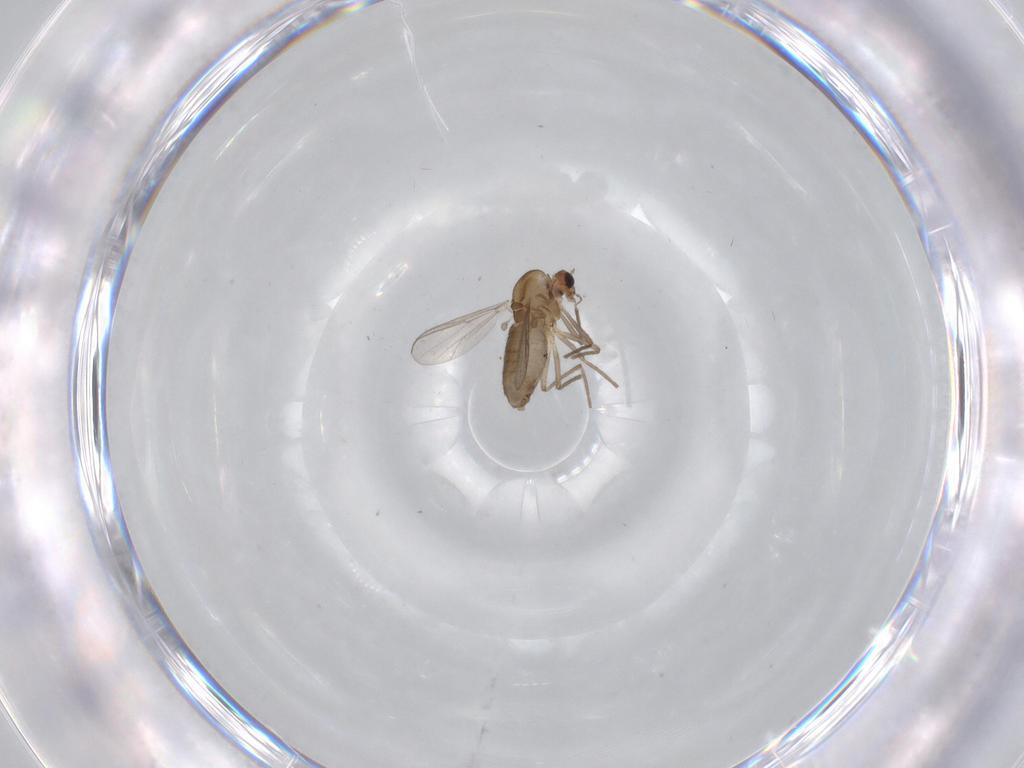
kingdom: Animalia
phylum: Arthropoda
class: Insecta
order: Diptera
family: Chironomidae
